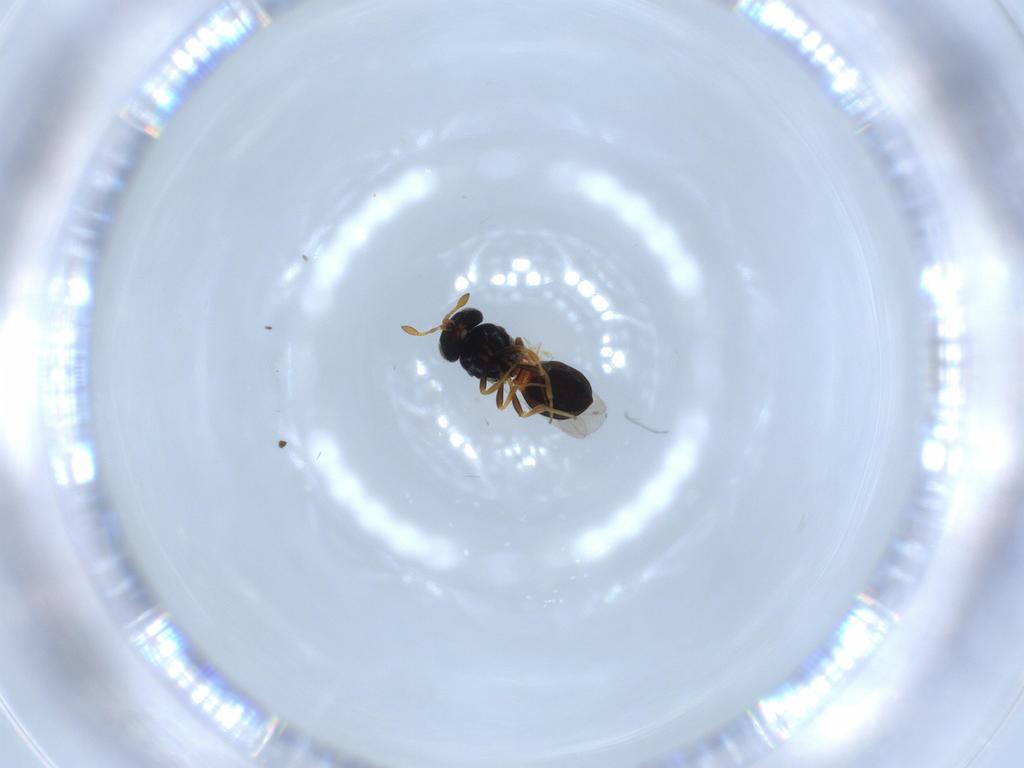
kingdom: Animalia
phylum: Arthropoda
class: Insecta
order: Hymenoptera
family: Scelionidae
